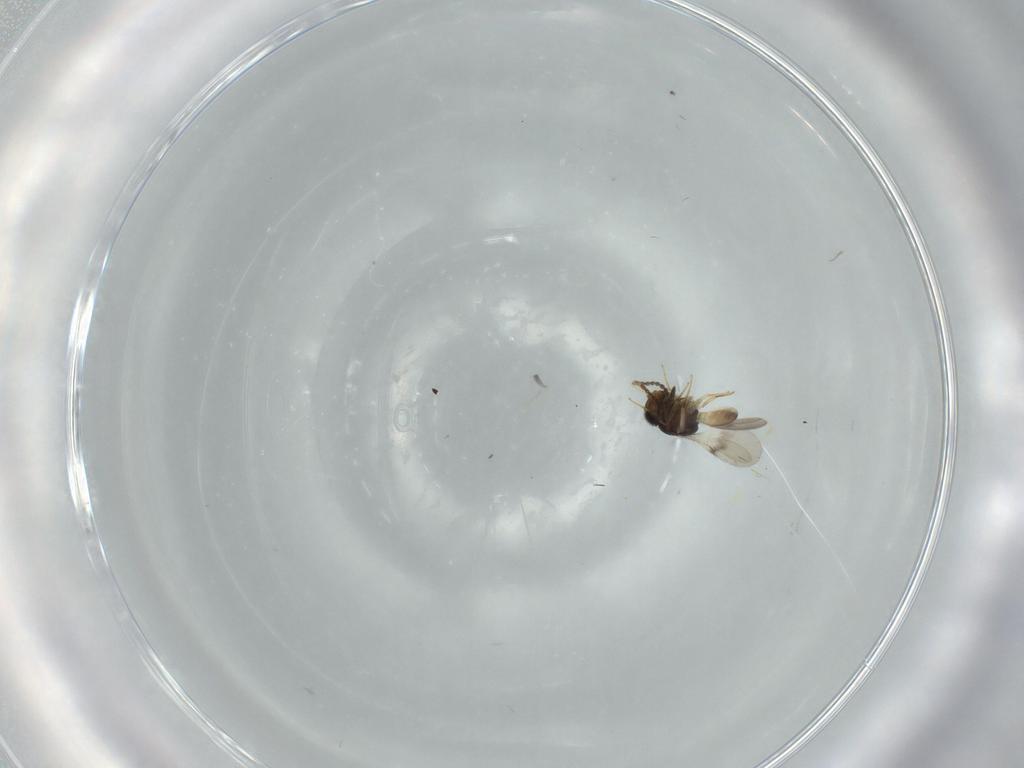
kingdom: Animalia
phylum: Arthropoda
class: Insecta
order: Hymenoptera
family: Scelionidae
